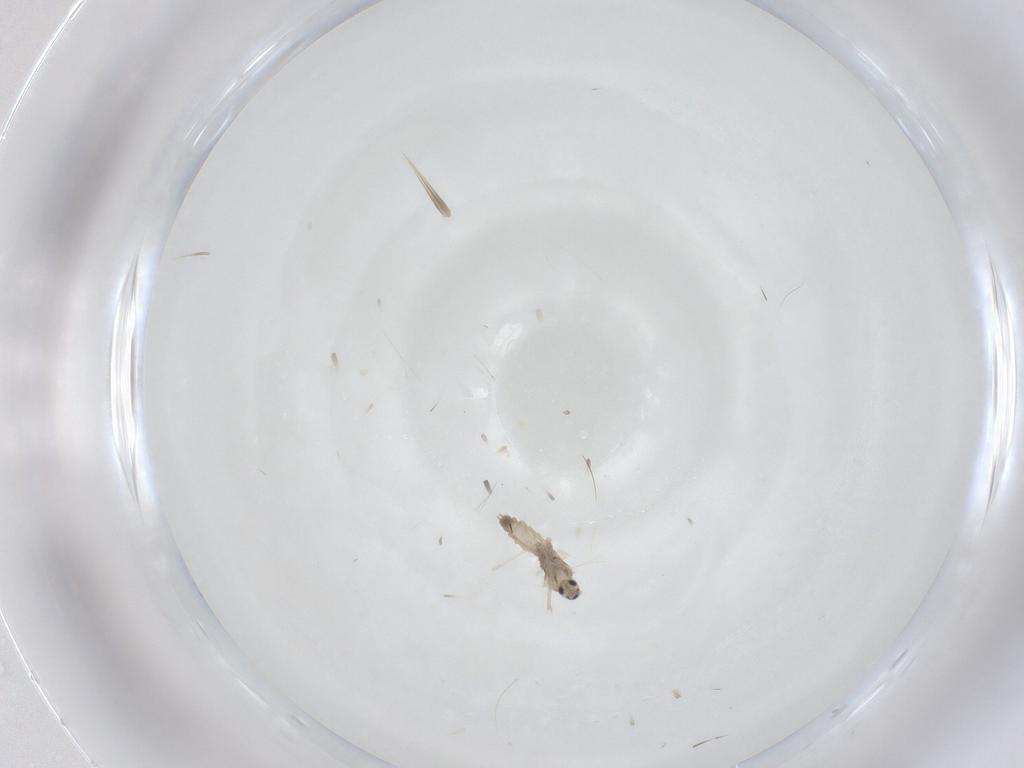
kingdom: Animalia
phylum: Arthropoda
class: Insecta
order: Diptera
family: Cecidomyiidae
